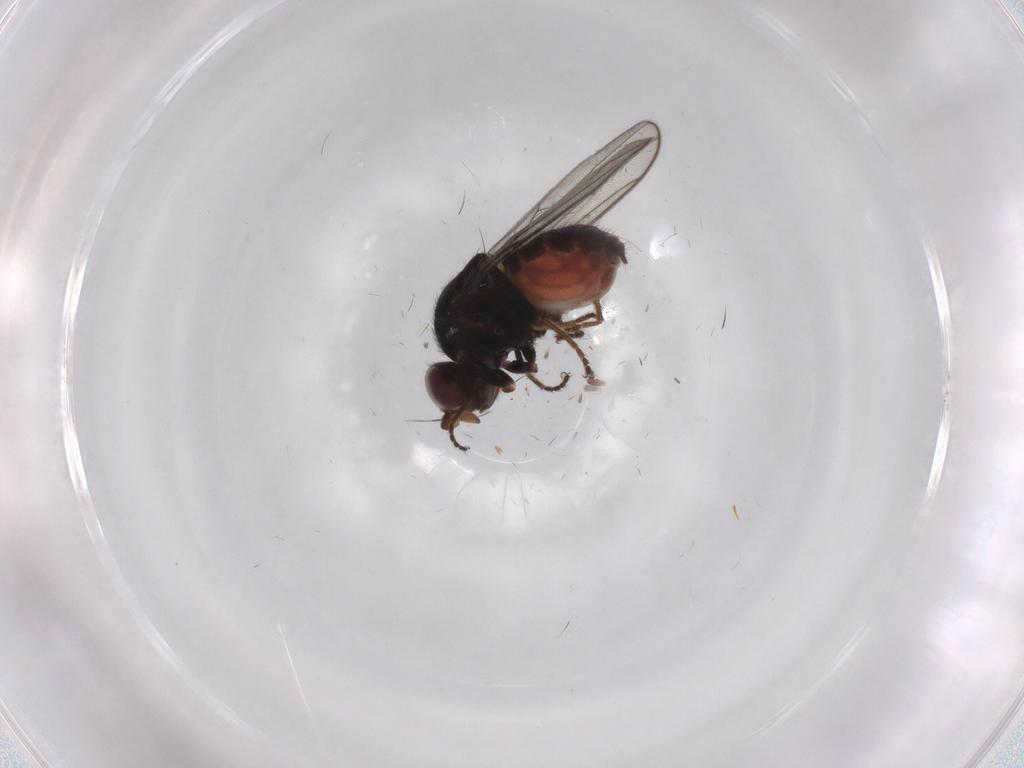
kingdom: Animalia
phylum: Arthropoda
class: Insecta
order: Diptera
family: Chloropidae
